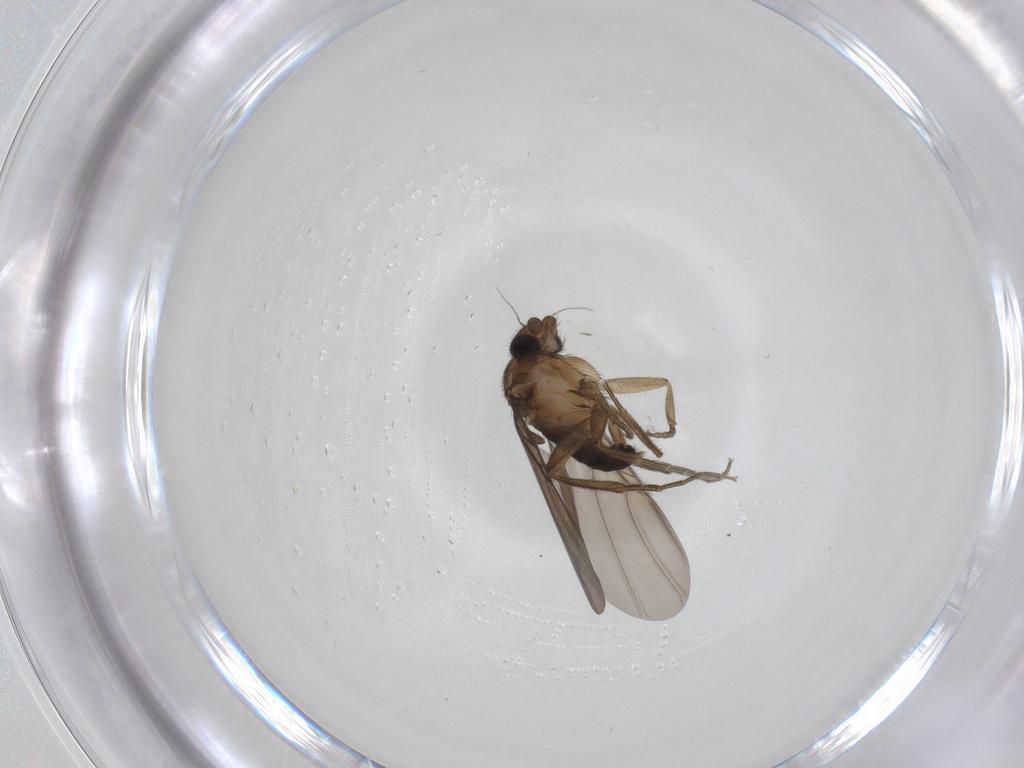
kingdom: Animalia
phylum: Arthropoda
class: Insecta
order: Diptera
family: Phoridae
